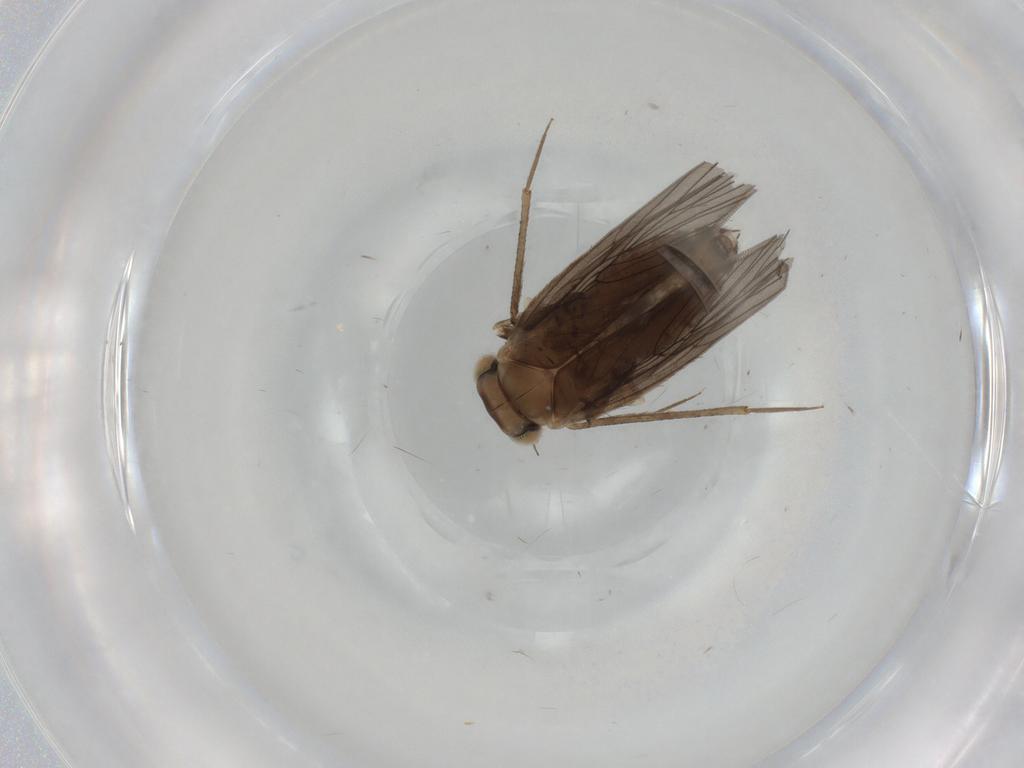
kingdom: Animalia
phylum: Arthropoda
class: Insecta
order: Psocodea
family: Lepidopsocidae
